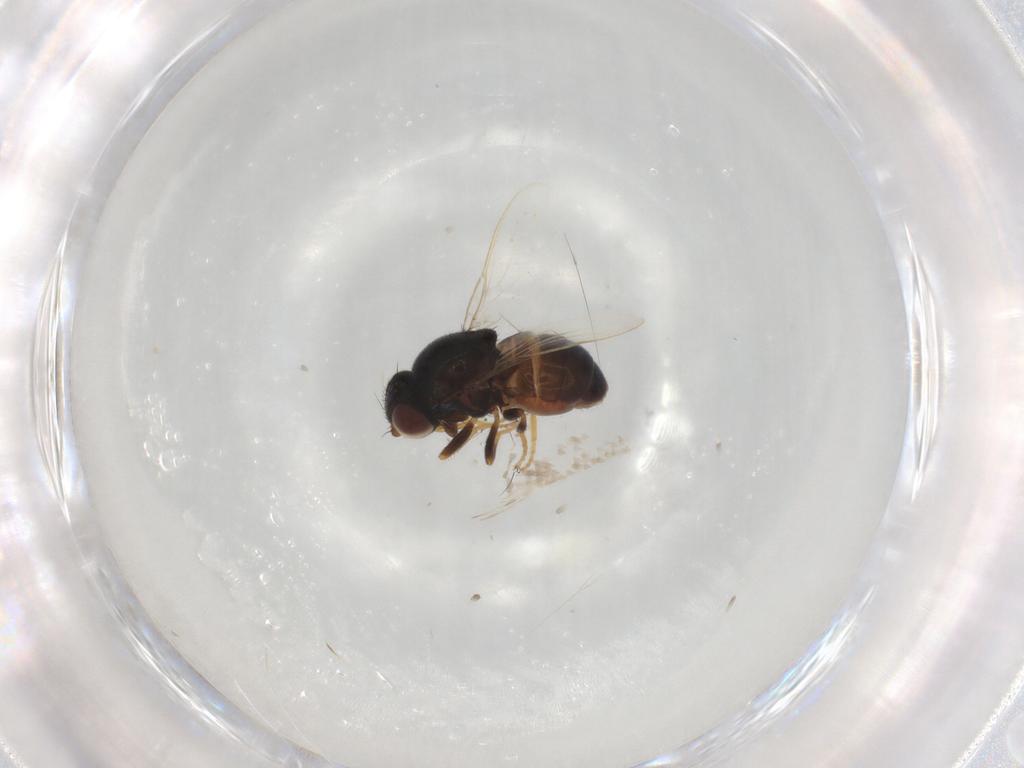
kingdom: Animalia
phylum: Arthropoda
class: Insecta
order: Diptera
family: Chloropidae
